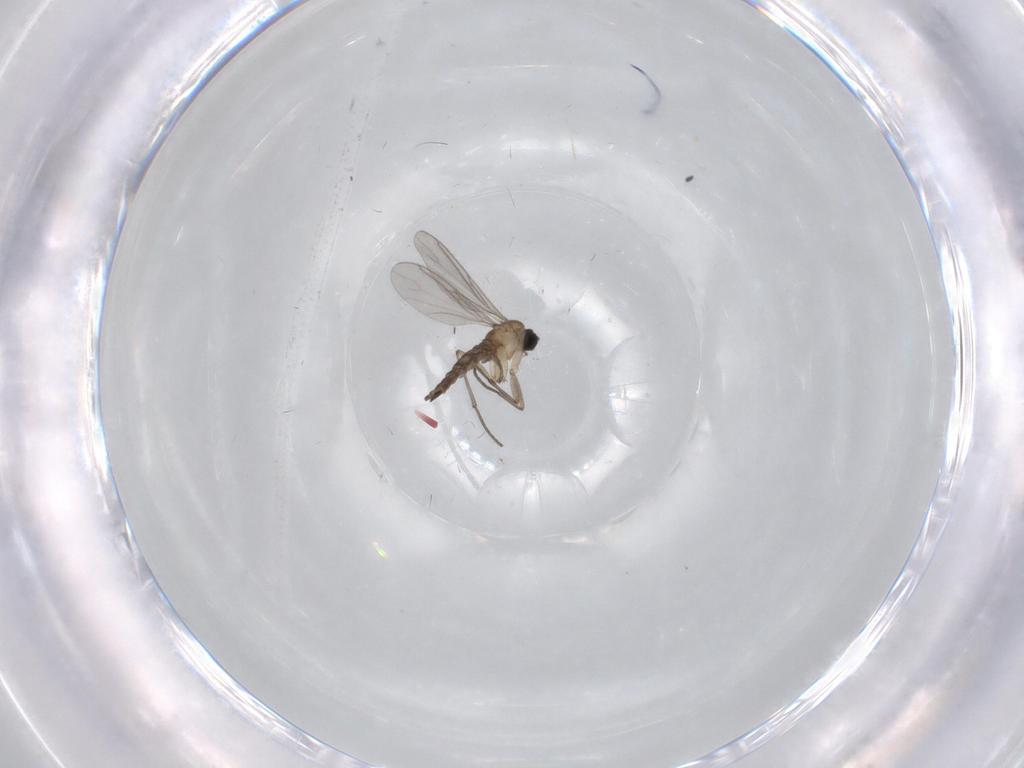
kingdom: Animalia
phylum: Arthropoda
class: Insecta
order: Diptera
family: Sciaridae
